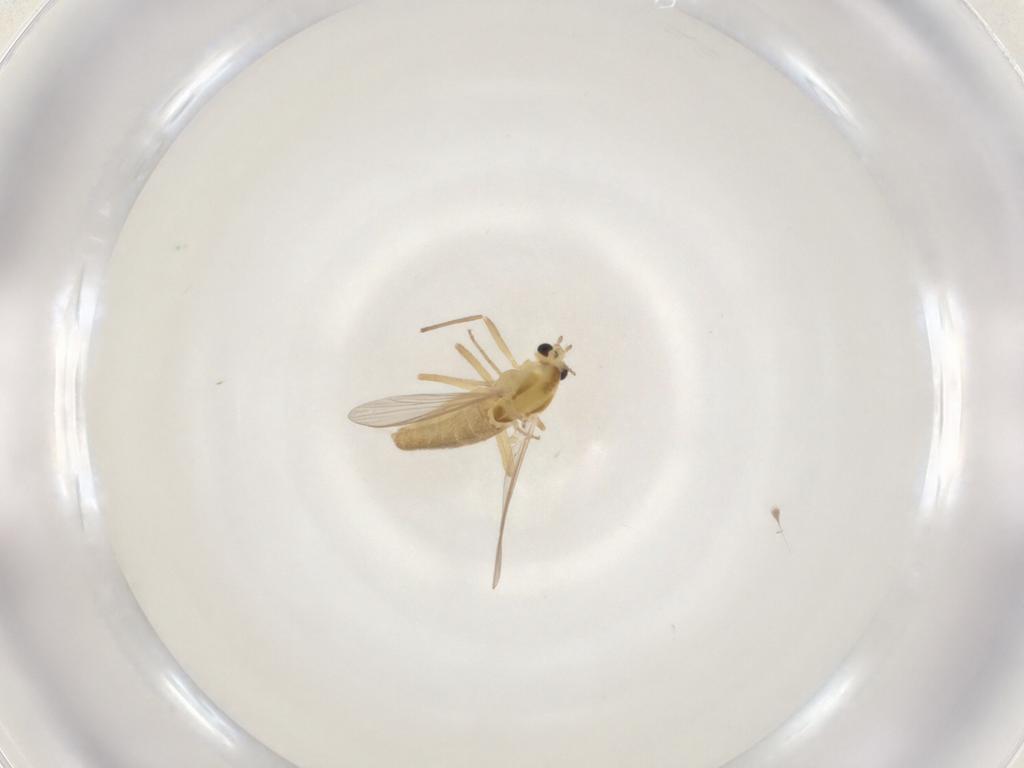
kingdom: Animalia
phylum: Arthropoda
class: Insecta
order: Diptera
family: Chironomidae
